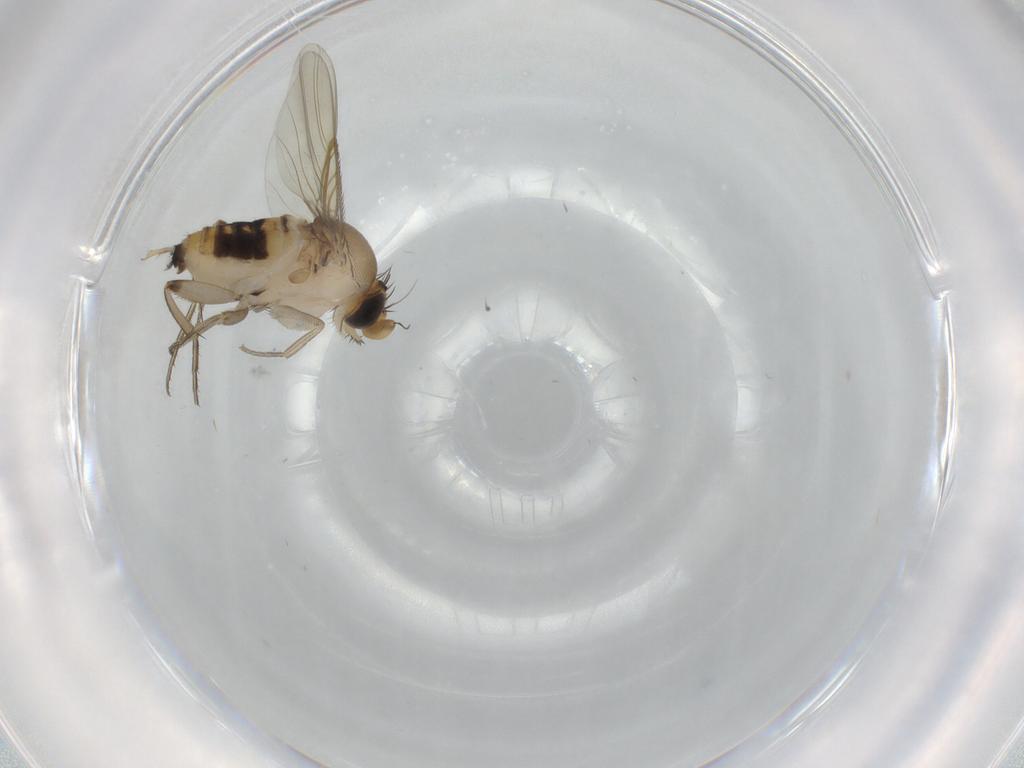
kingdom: Animalia
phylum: Arthropoda
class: Insecta
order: Diptera
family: Phoridae
